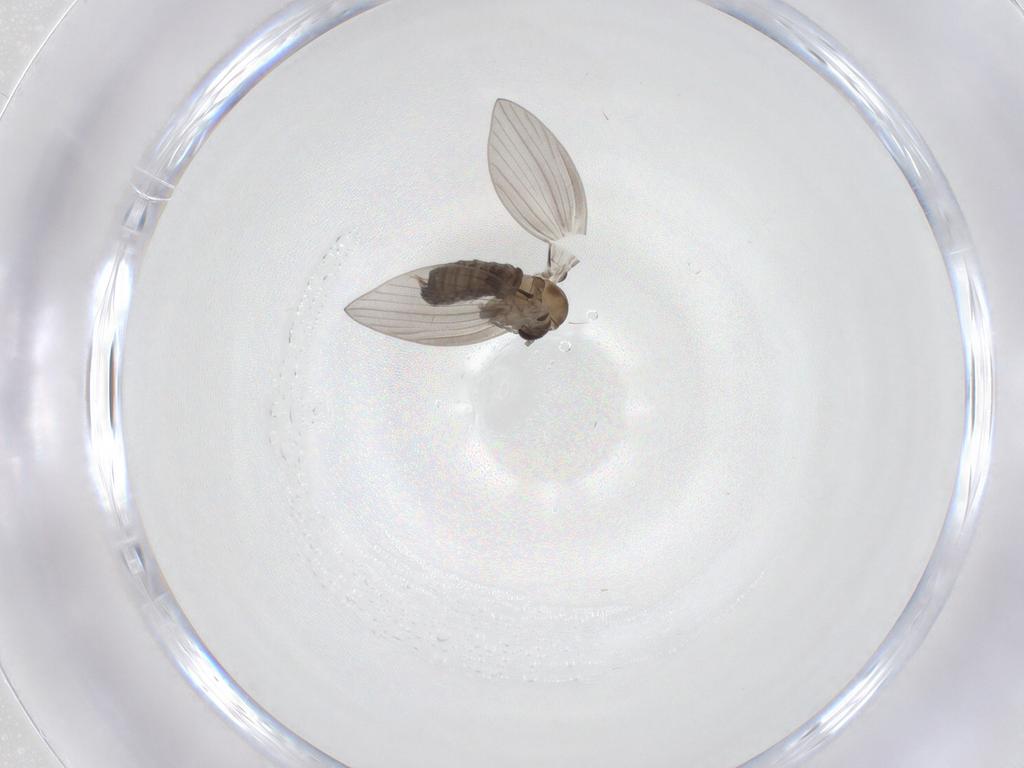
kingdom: Animalia
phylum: Arthropoda
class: Insecta
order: Diptera
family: Psychodidae
